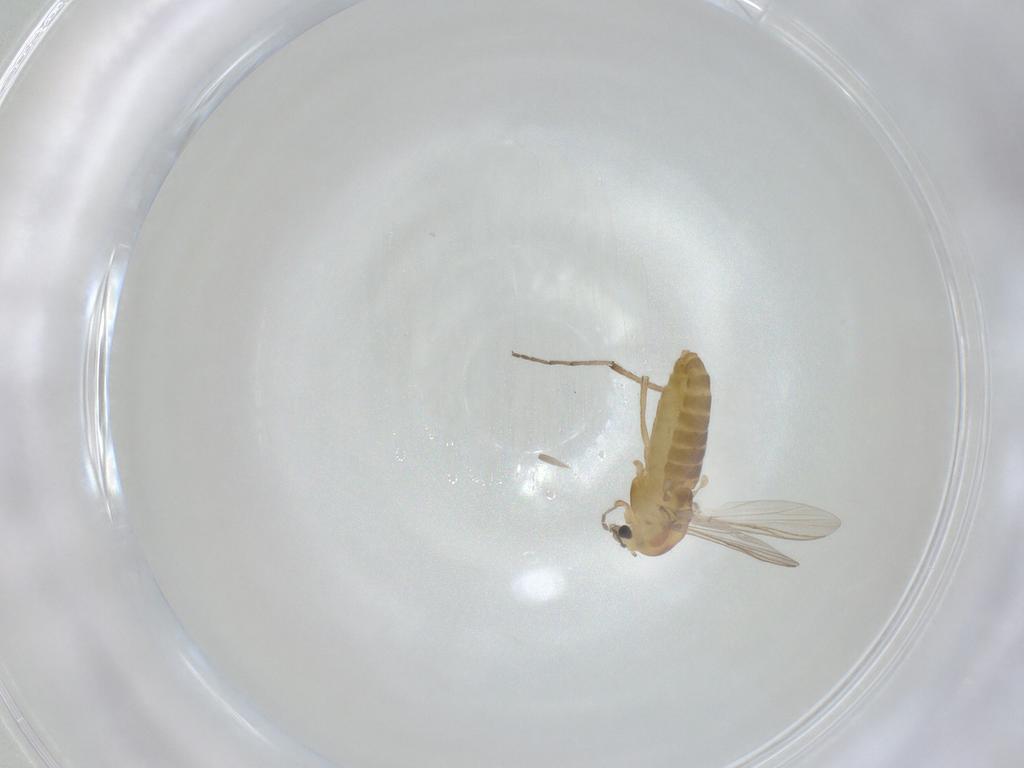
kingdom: Animalia
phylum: Arthropoda
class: Insecta
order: Diptera
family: Chironomidae
